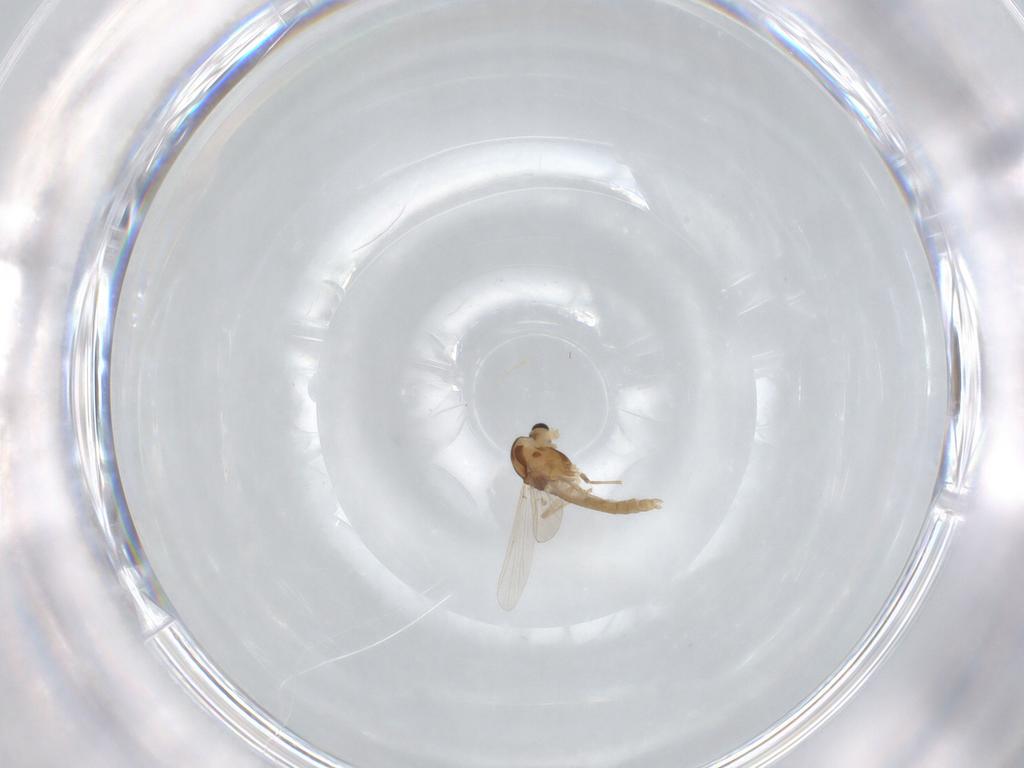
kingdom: Animalia
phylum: Arthropoda
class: Insecta
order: Diptera
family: Chironomidae
